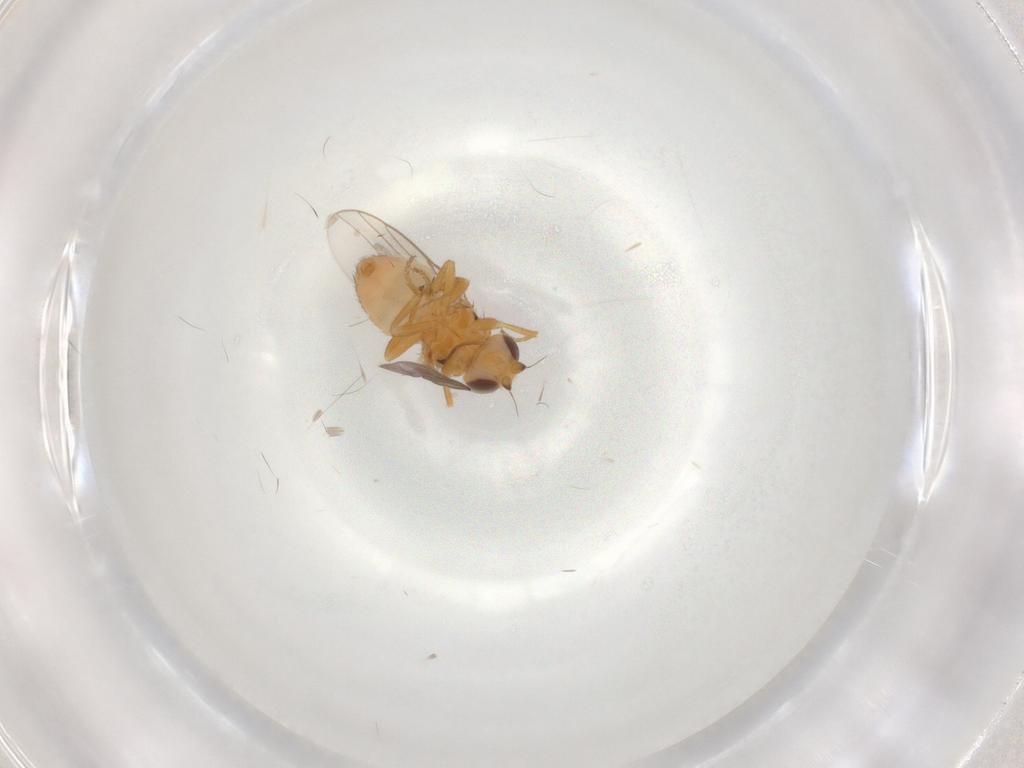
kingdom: Animalia
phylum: Arthropoda
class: Insecta
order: Diptera
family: Chloropidae
